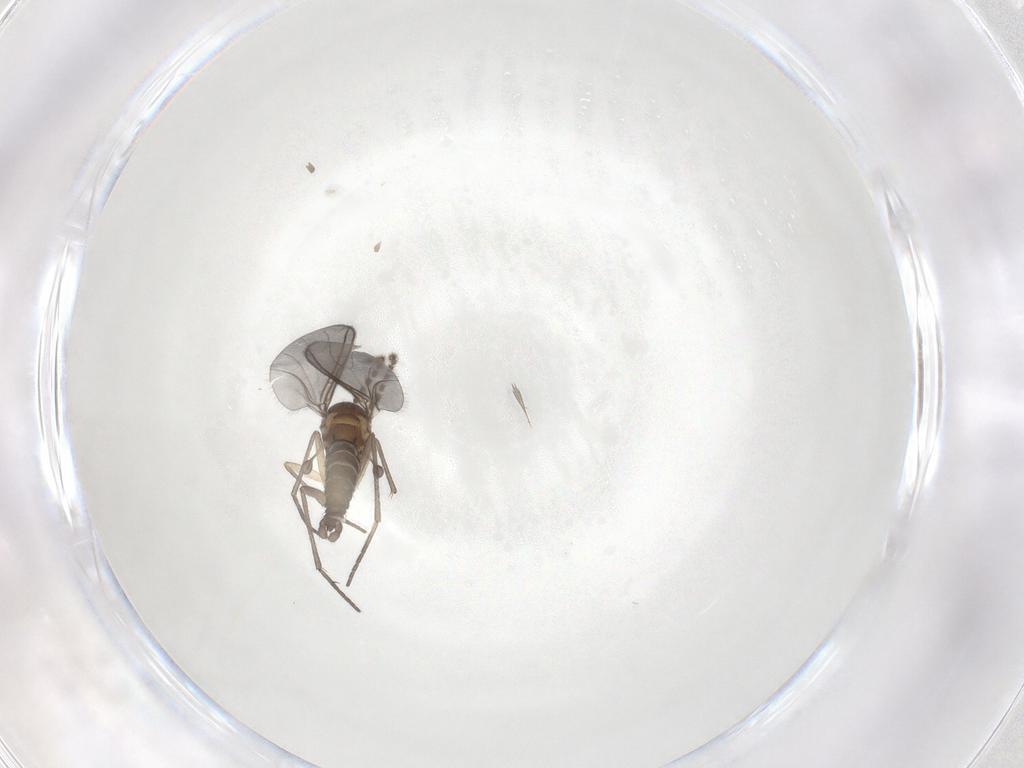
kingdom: Animalia
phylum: Arthropoda
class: Insecta
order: Diptera
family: Sciaridae
